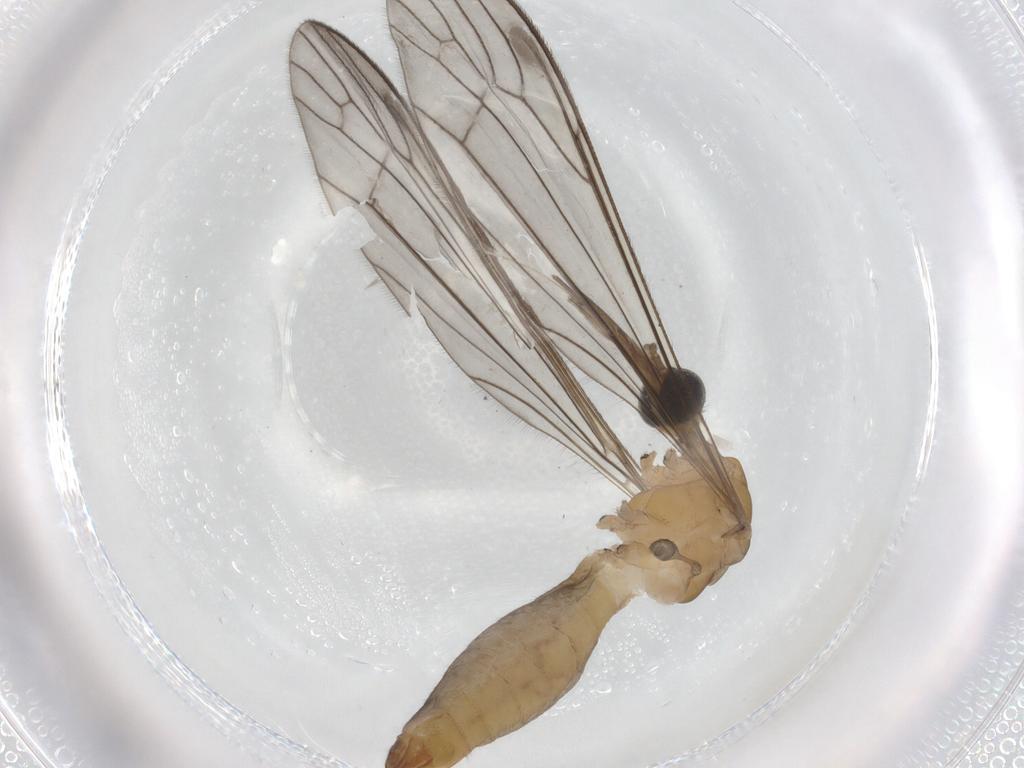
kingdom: Animalia
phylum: Arthropoda
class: Insecta
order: Diptera
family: Limoniidae
